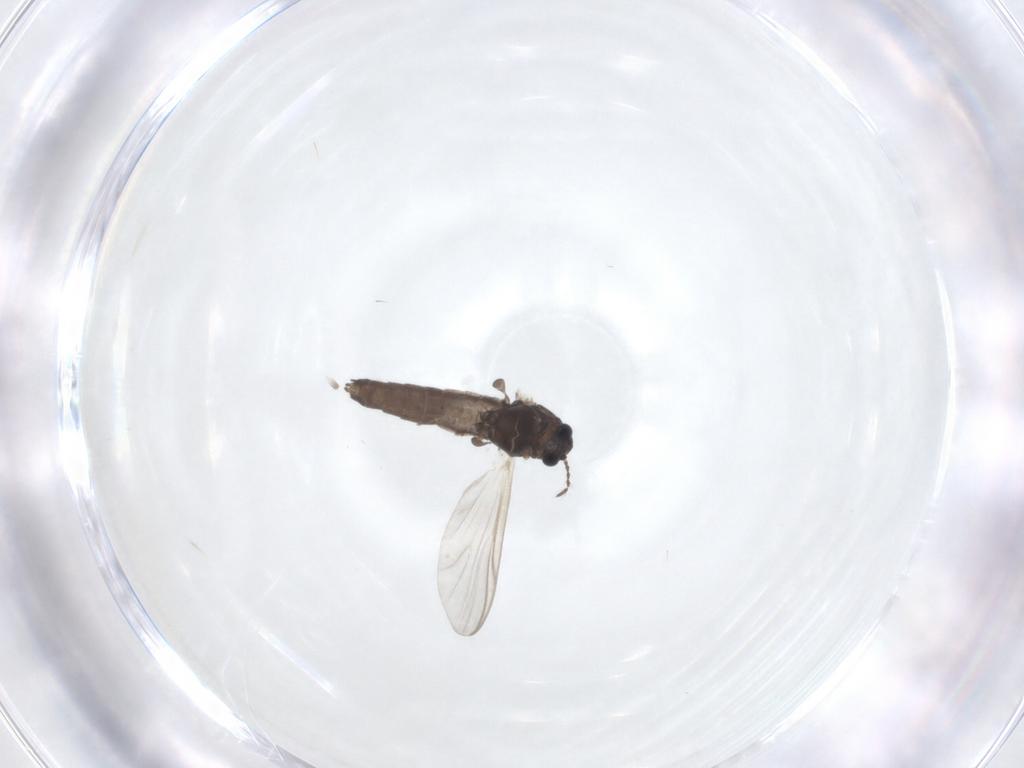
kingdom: Animalia
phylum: Arthropoda
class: Insecta
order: Diptera
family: Chironomidae
